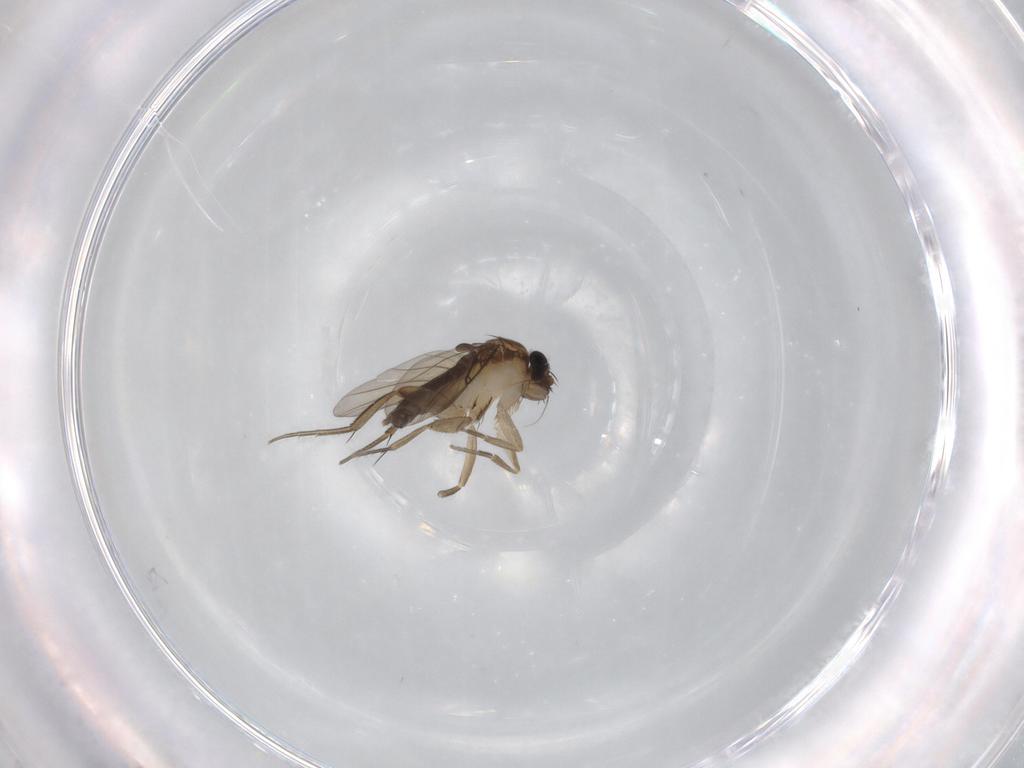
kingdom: Animalia
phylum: Arthropoda
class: Insecta
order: Diptera
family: Phoridae
